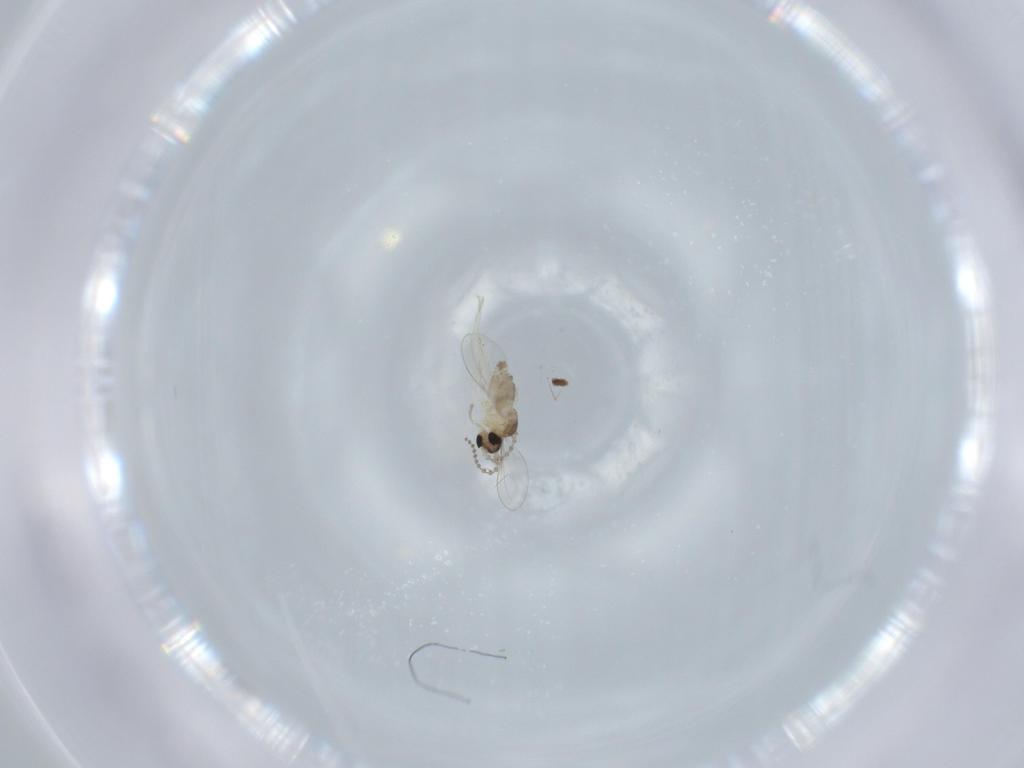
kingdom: Animalia
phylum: Arthropoda
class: Insecta
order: Diptera
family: Cecidomyiidae
